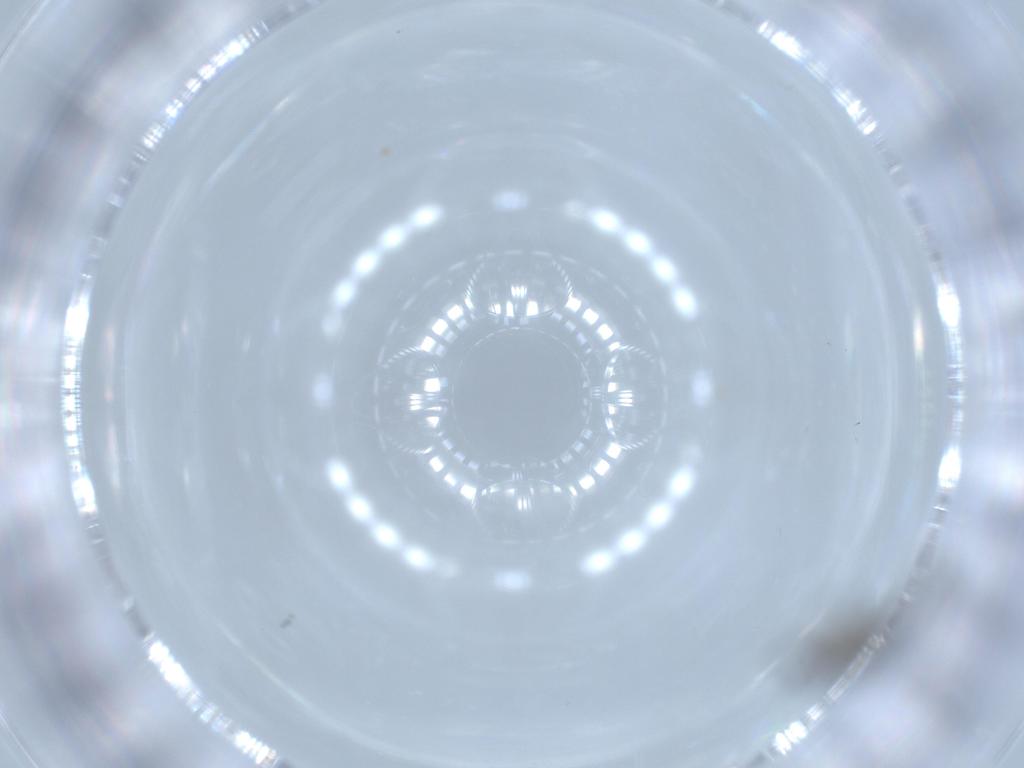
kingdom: Animalia
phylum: Arthropoda
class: Insecta
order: Diptera
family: Sciaridae
